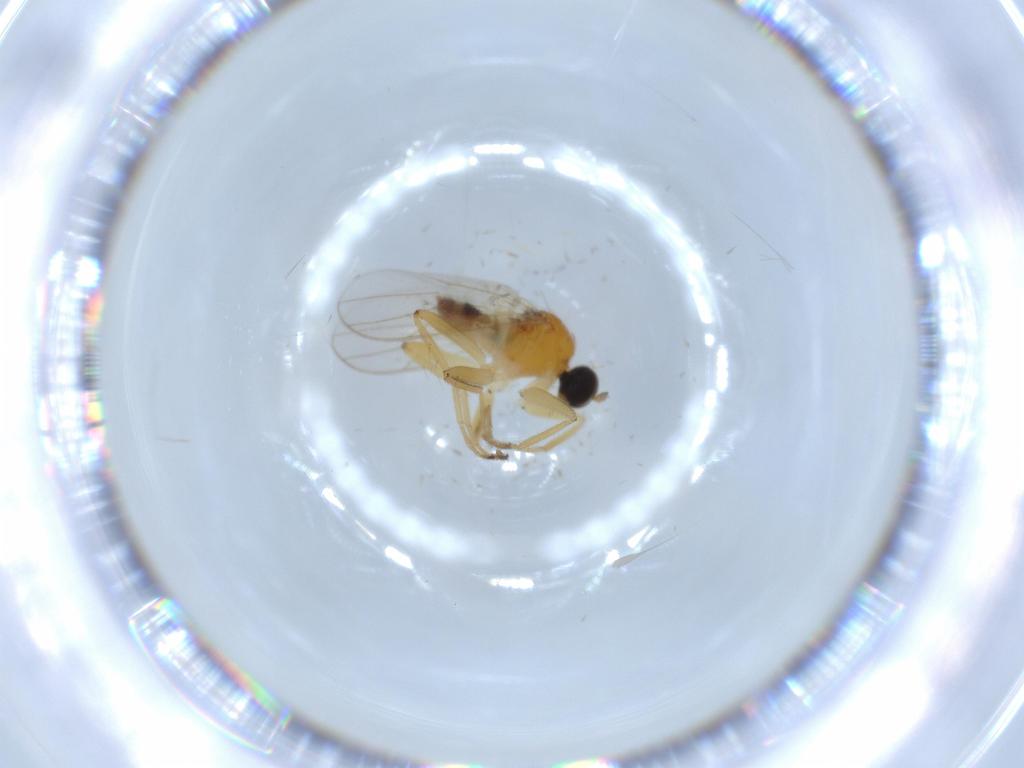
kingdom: Animalia
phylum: Arthropoda
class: Insecta
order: Diptera
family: Hybotidae
